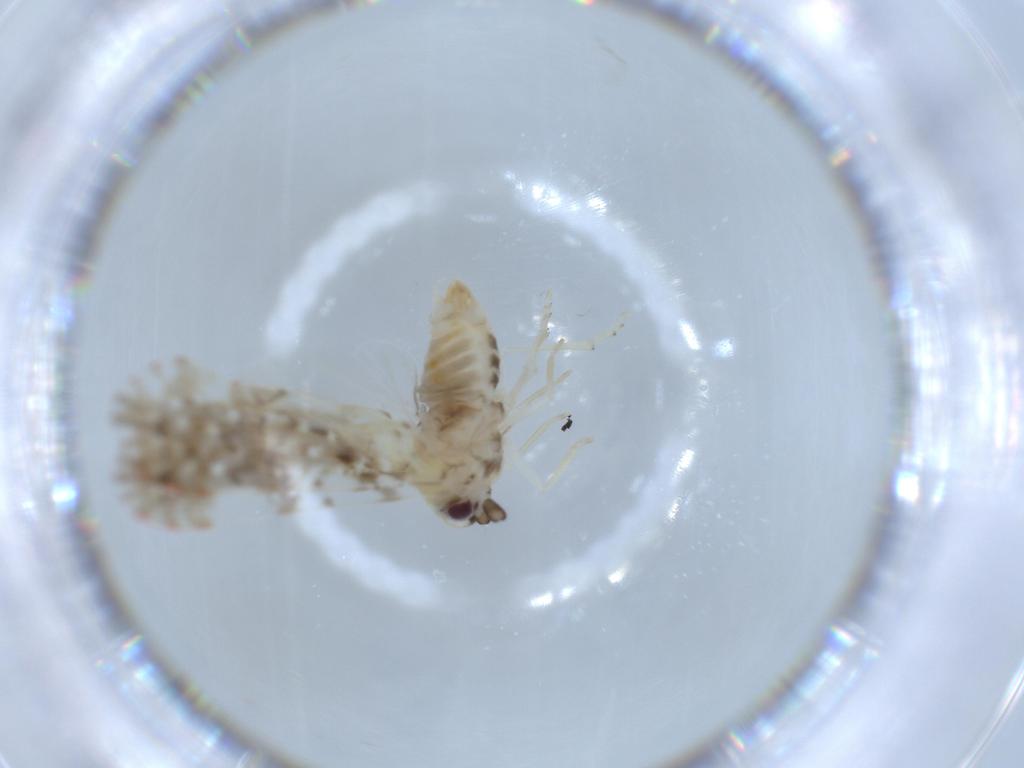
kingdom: Animalia
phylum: Arthropoda
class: Insecta
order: Hemiptera
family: Derbidae
